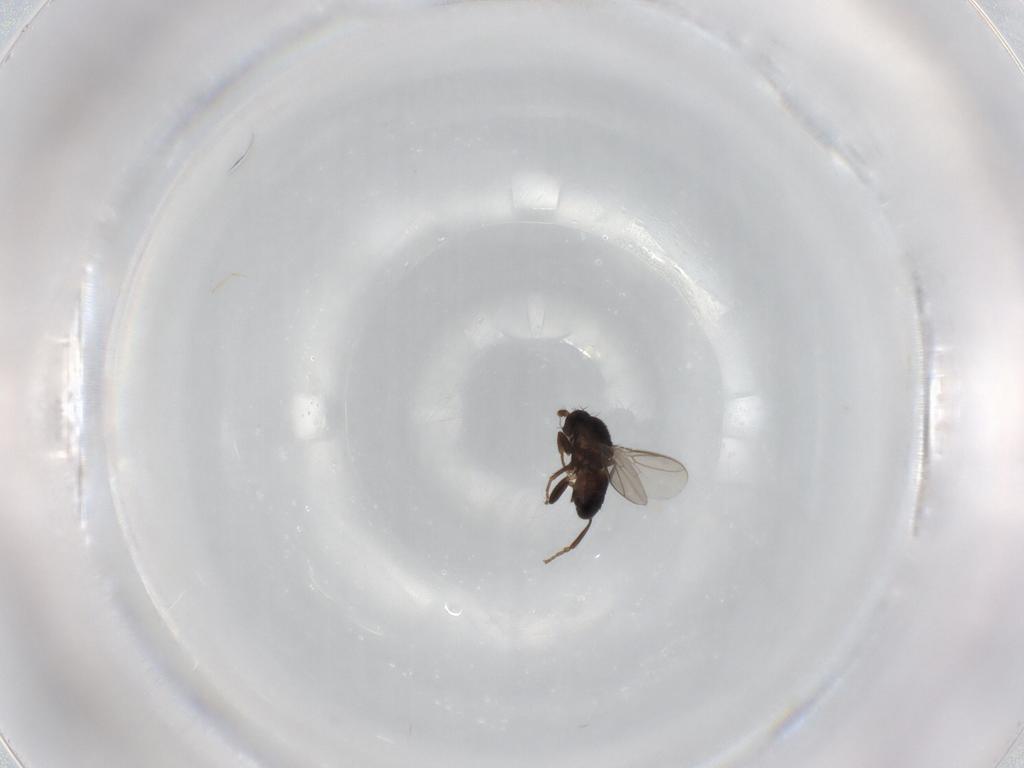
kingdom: Animalia
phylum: Arthropoda
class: Insecta
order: Diptera
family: Sphaeroceridae
